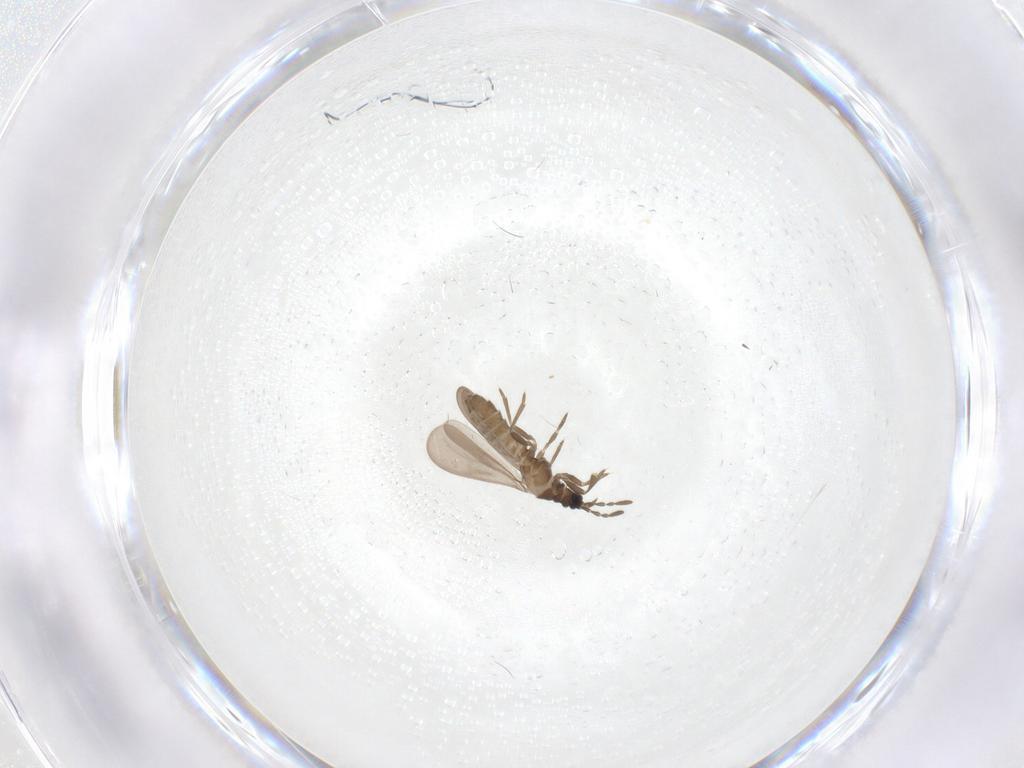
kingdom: Animalia
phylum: Arthropoda
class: Insecta
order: Hemiptera
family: Enicocephalidae
